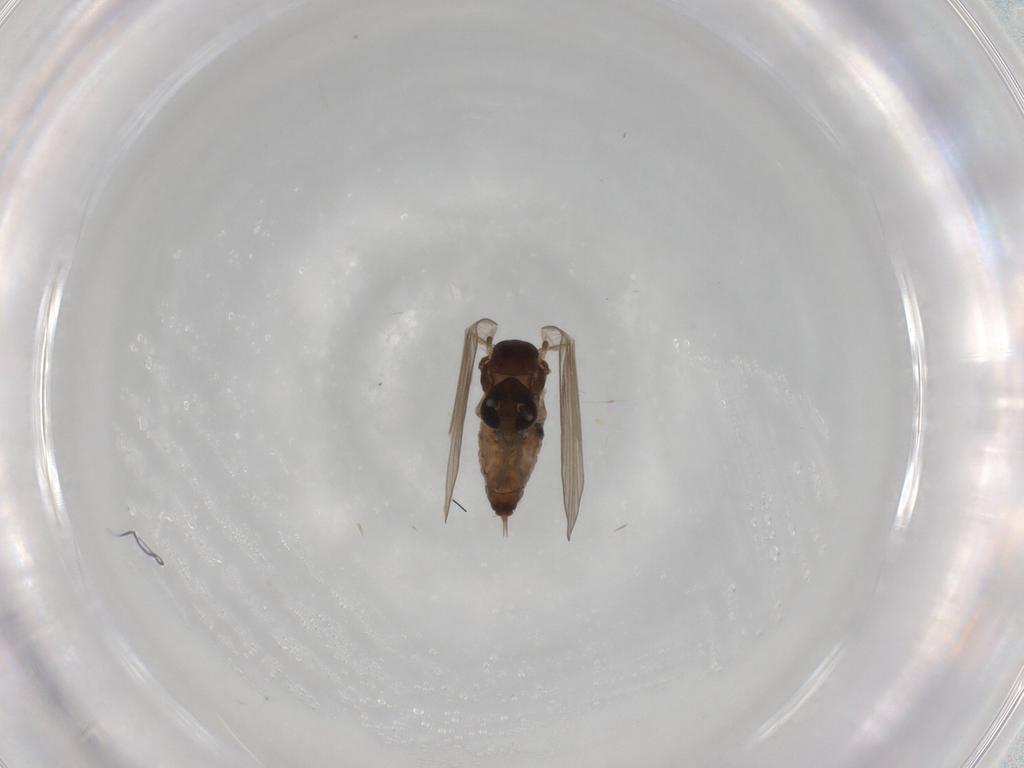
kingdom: Animalia
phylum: Arthropoda
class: Insecta
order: Diptera
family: Psychodidae
